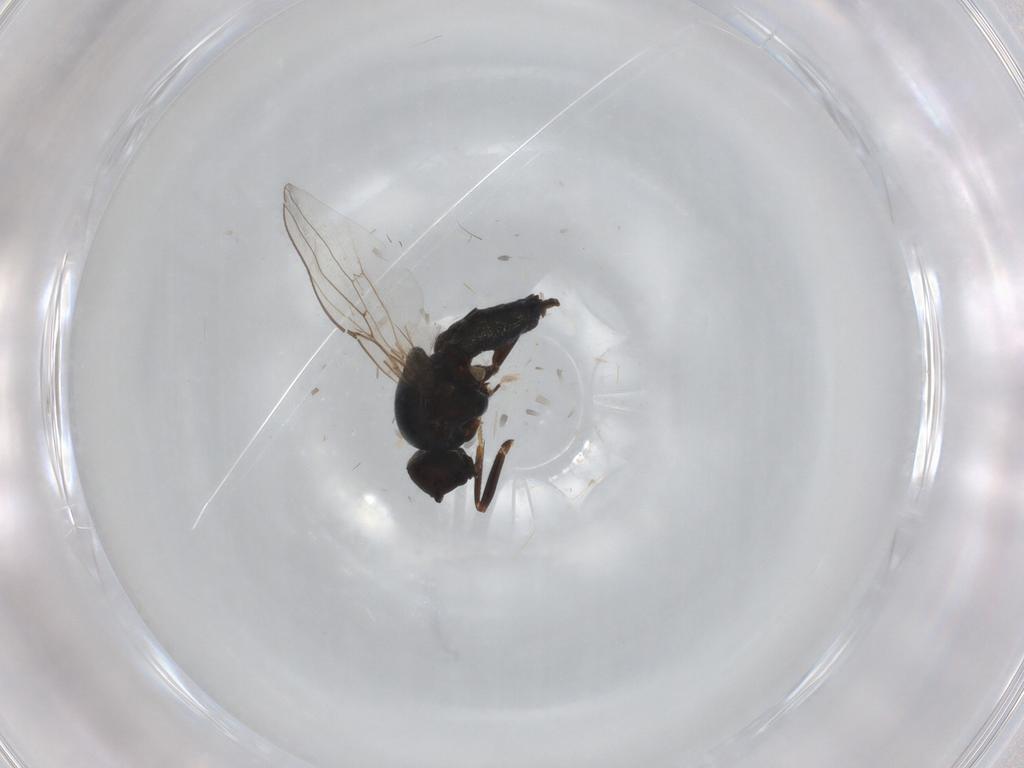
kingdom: Animalia
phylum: Arthropoda
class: Insecta
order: Diptera
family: Chloropidae
